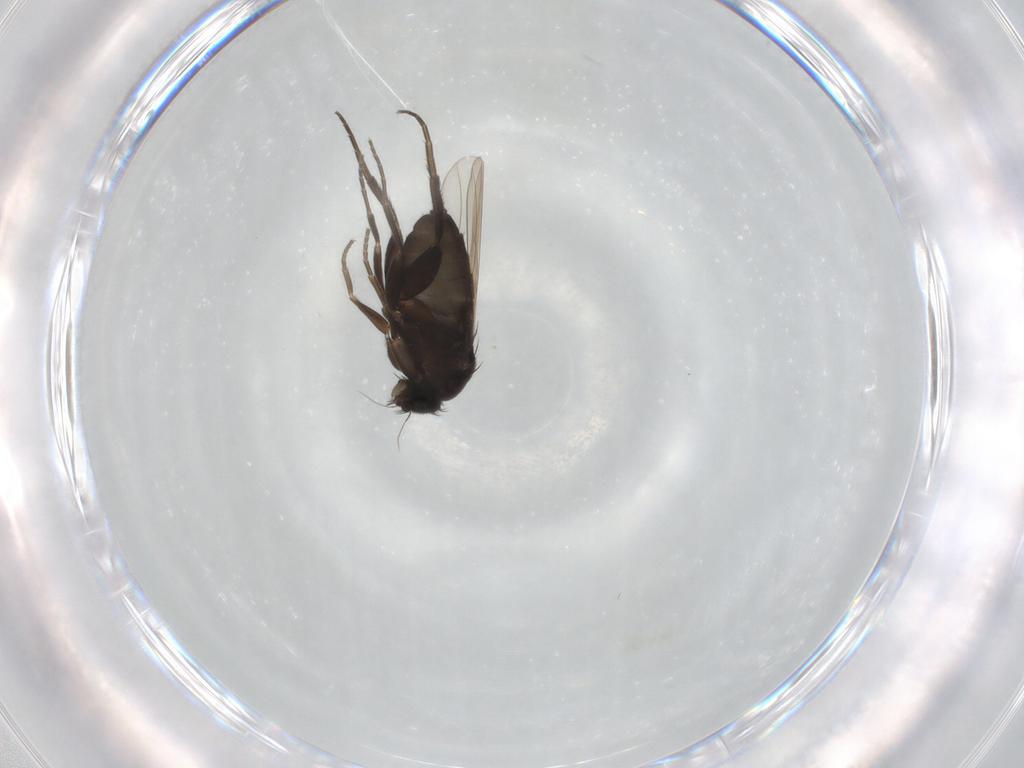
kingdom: Animalia
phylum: Arthropoda
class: Insecta
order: Diptera
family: Phoridae
